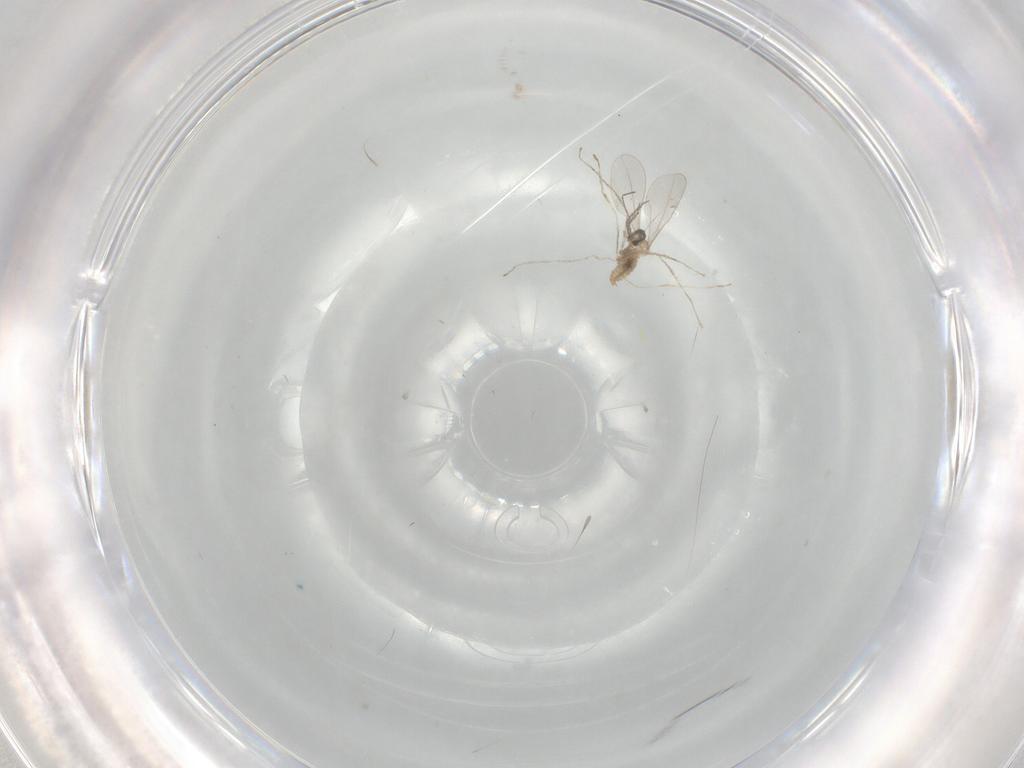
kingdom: Animalia
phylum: Arthropoda
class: Insecta
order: Diptera
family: Cecidomyiidae
